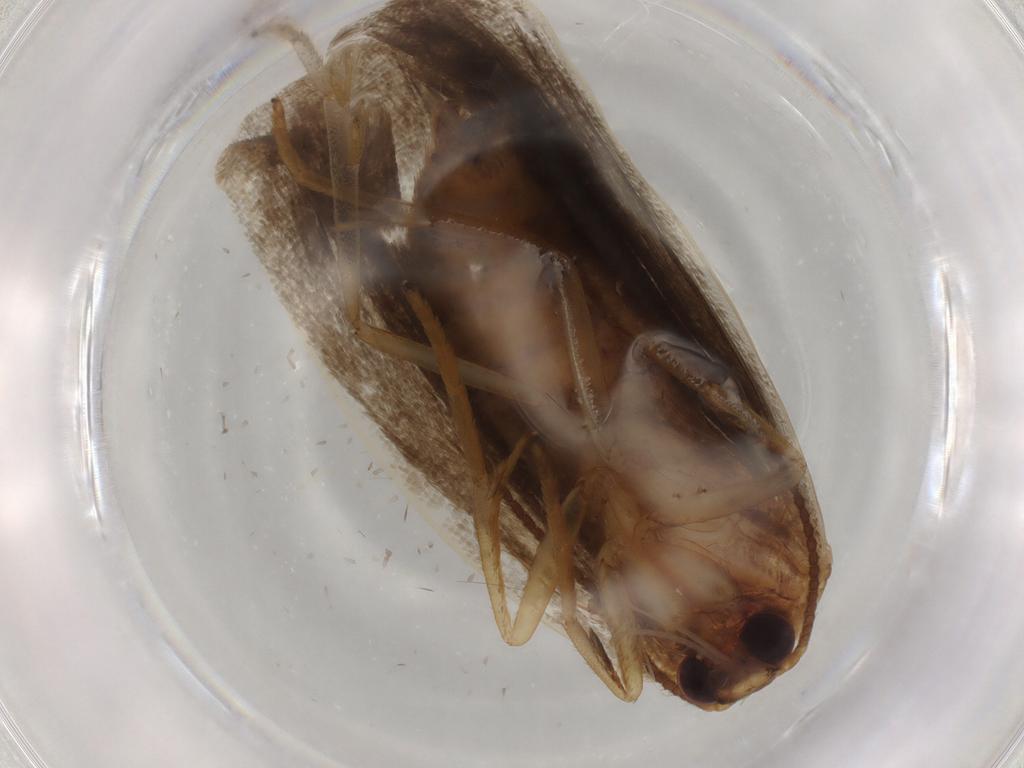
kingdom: Animalia
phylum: Arthropoda
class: Insecta
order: Lepidoptera
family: Erebidae
